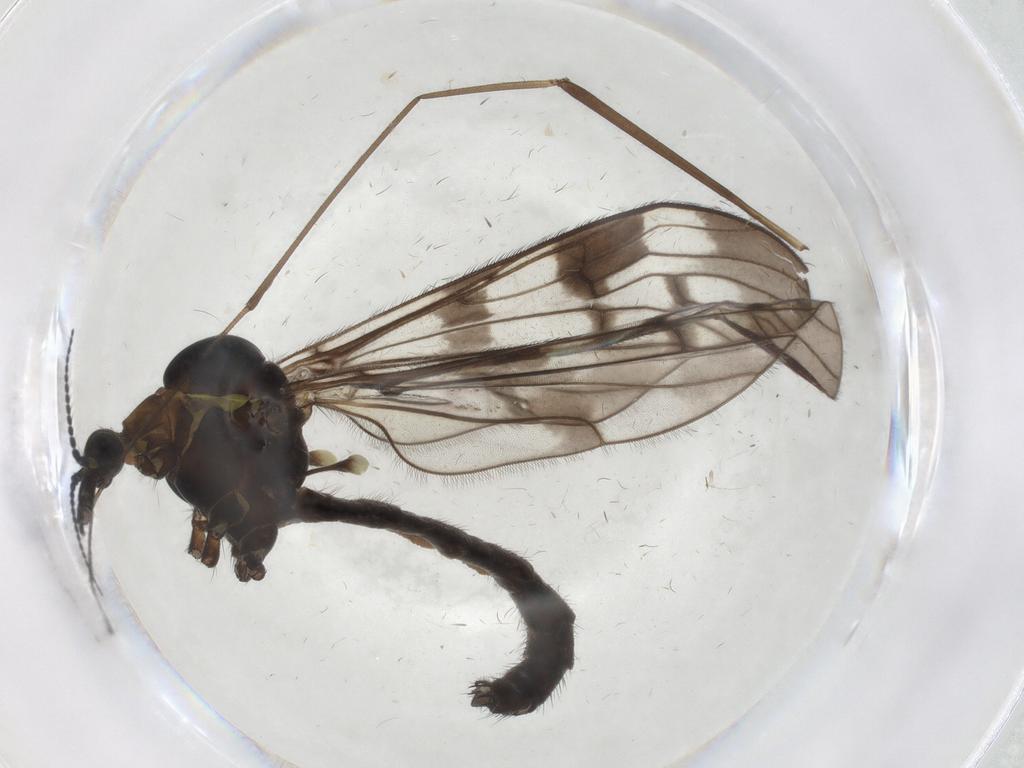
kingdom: Animalia
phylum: Arthropoda
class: Insecta
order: Diptera
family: Limoniidae
